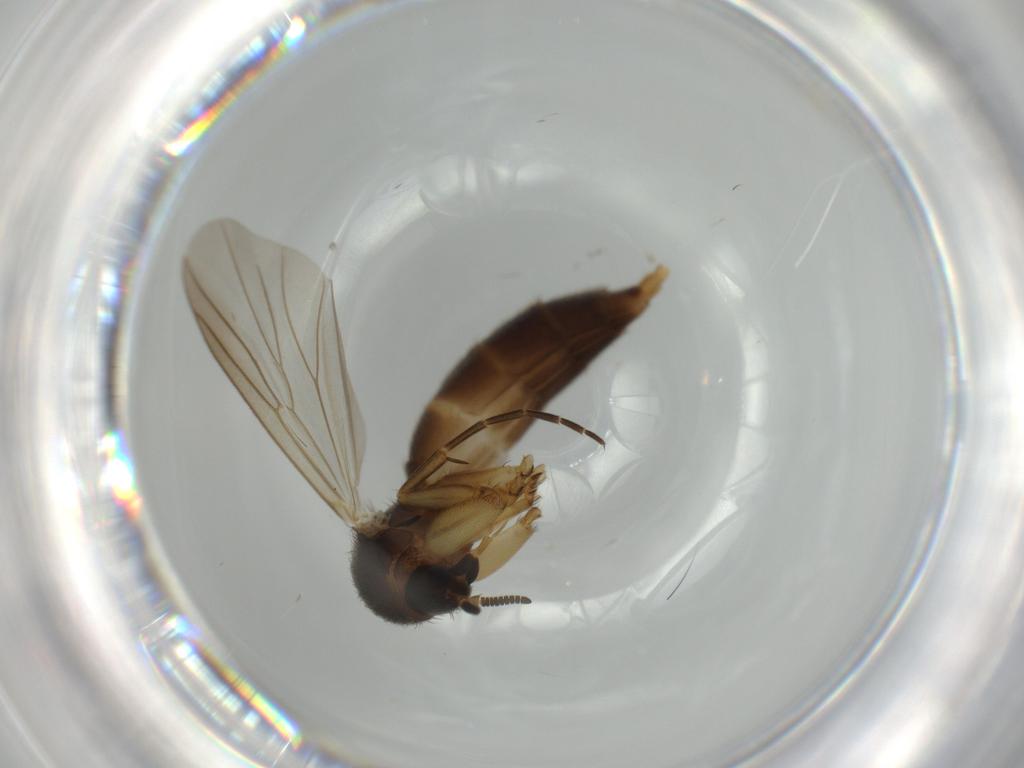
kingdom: Animalia
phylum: Arthropoda
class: Insecta
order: Diptera
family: Mycetophilidae
